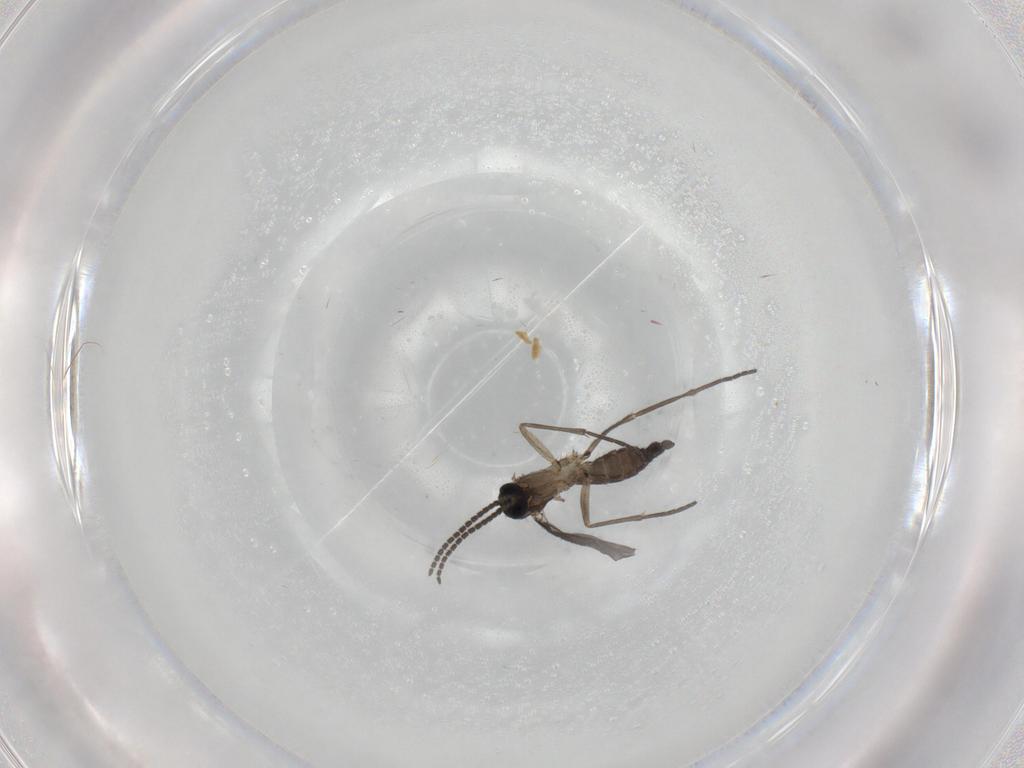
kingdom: Animalia
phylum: Arthropoda
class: Insecta
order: Diptera
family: Sciaridae
